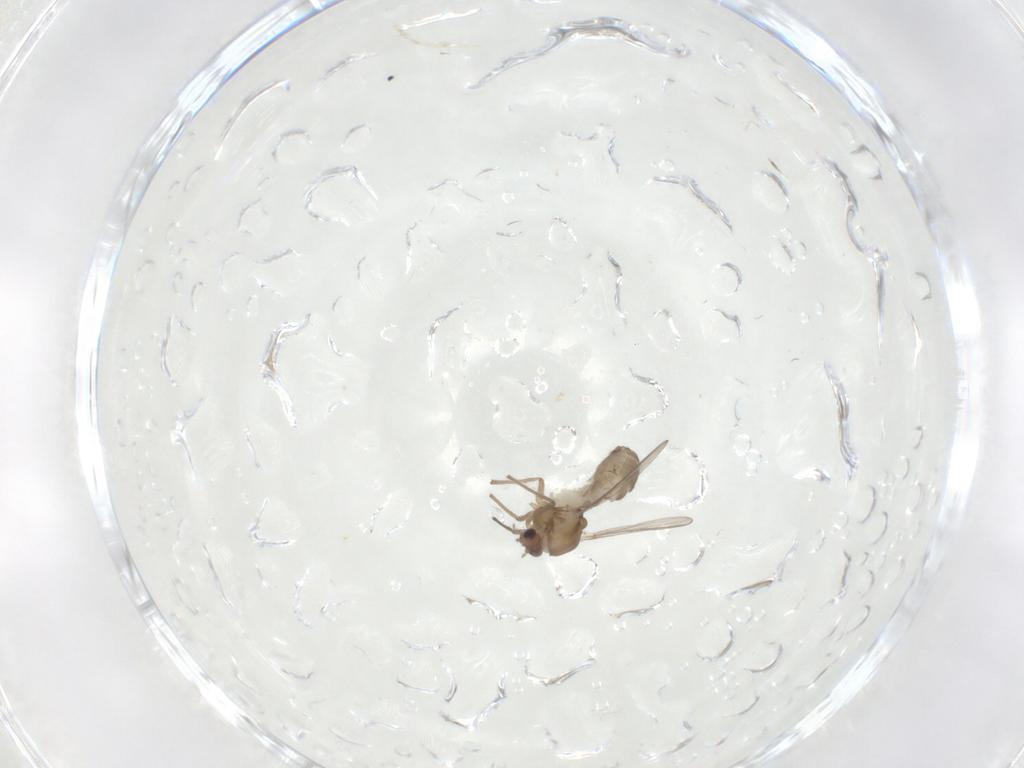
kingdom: Animalia
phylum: Arthropoda
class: Insecta
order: Diptera
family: Chironomidae
